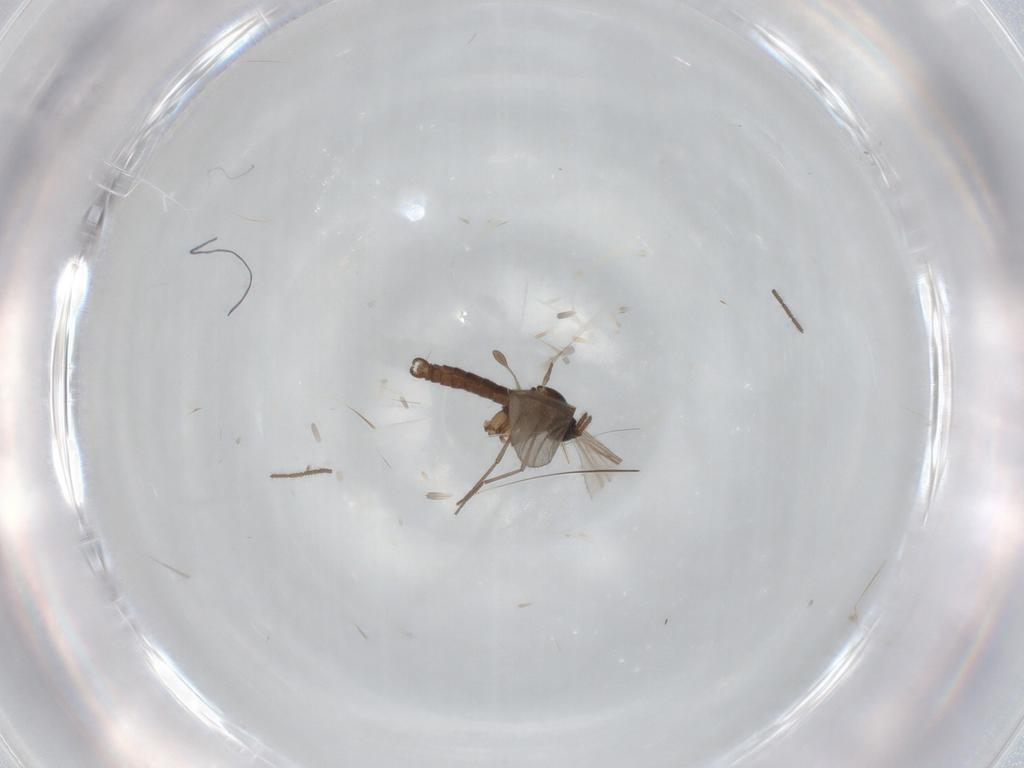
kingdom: Animalia
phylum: Arthropoda
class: Insecta
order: Diptera
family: Sciaridae
